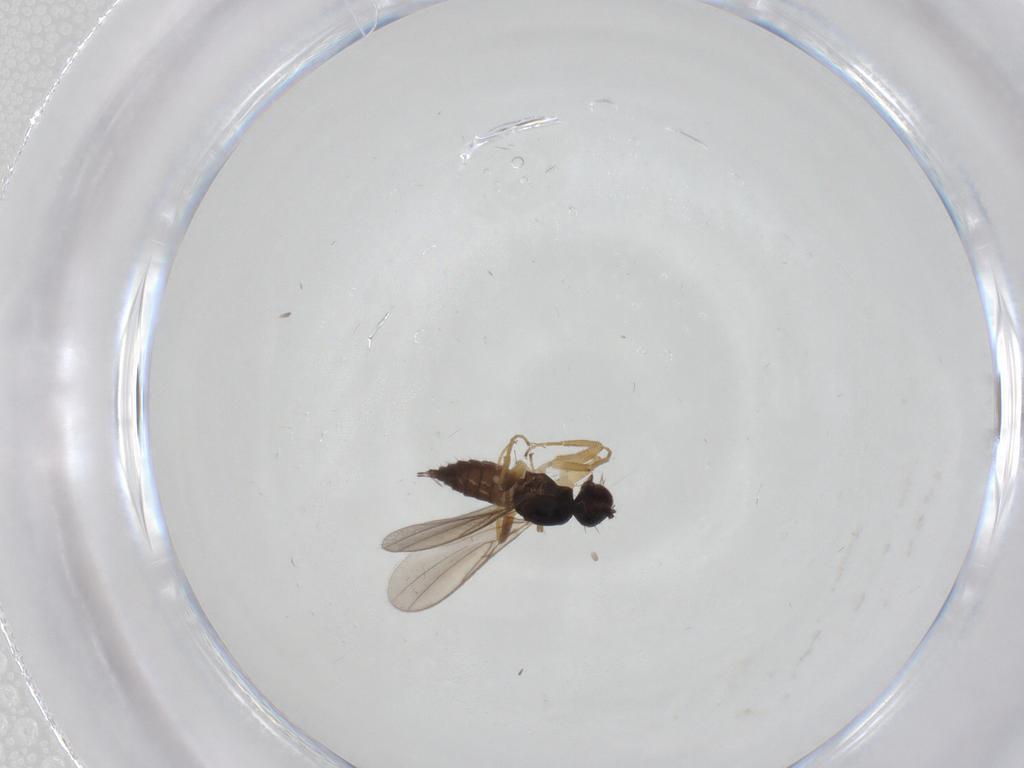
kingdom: Animalia
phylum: Arthropoda
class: Insecta
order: Diptera
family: Hybotidae
